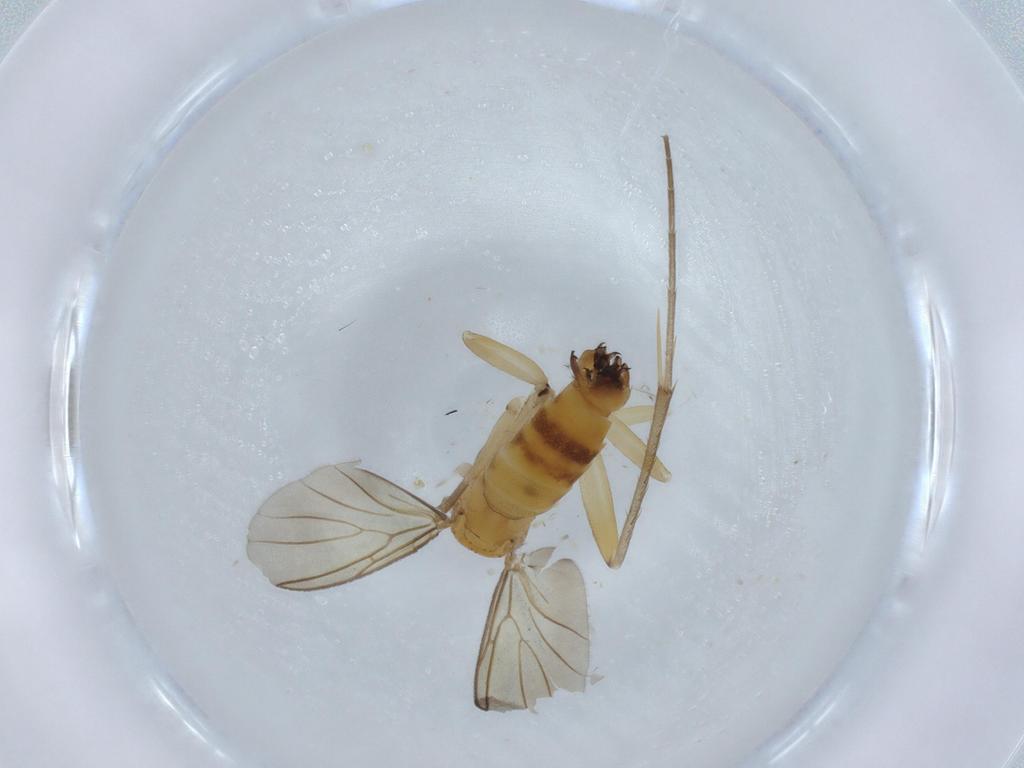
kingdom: Animalia
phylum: Arthropoda
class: Insecta
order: Diptera
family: Mycetophilidae
